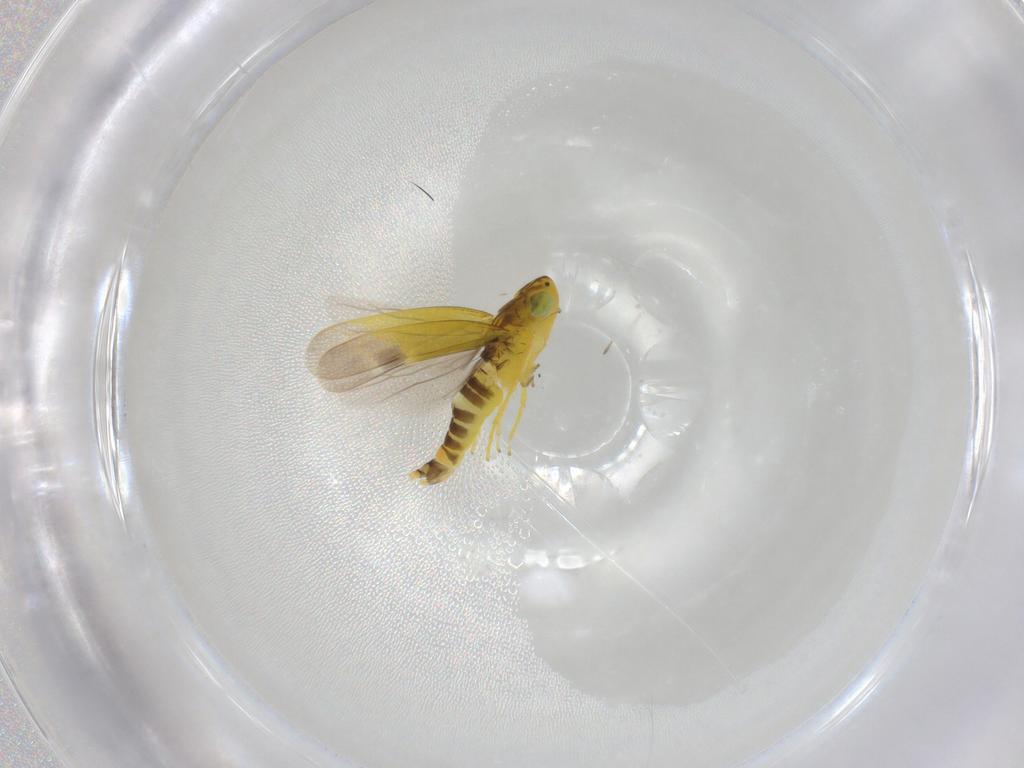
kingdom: Animalia
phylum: Arthropoda
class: Insecta
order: Hemiptera
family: Cicadellidae
